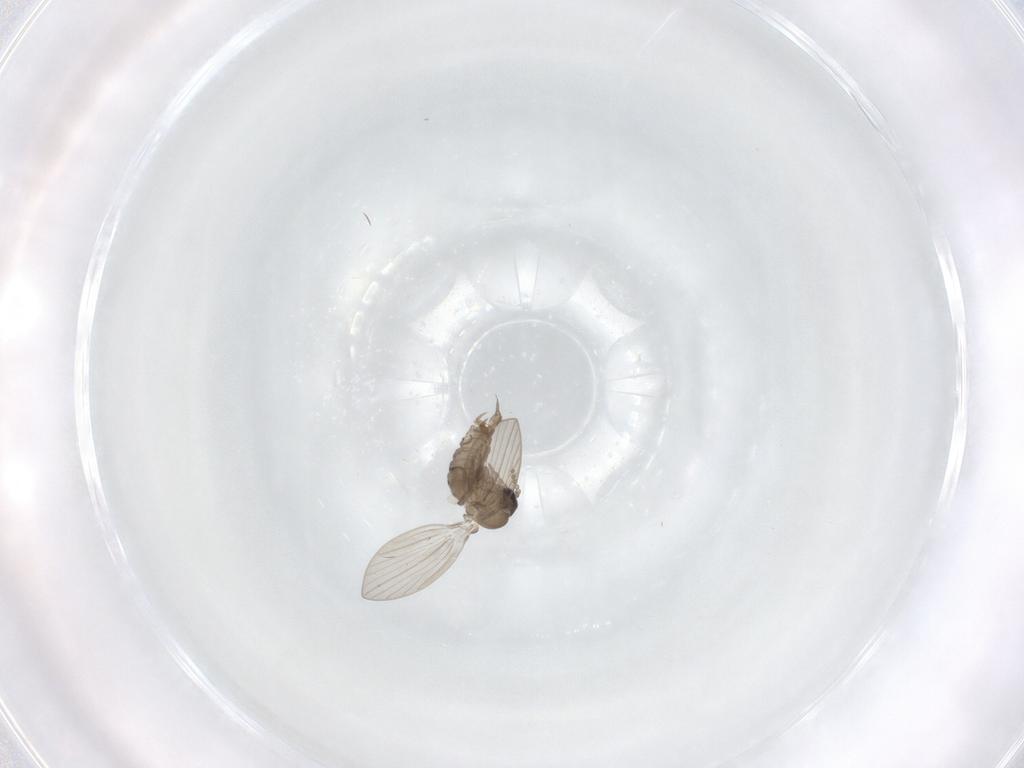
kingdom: Animalia
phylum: Arthropoda
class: Insecta
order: Diptera
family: Psychodidae
